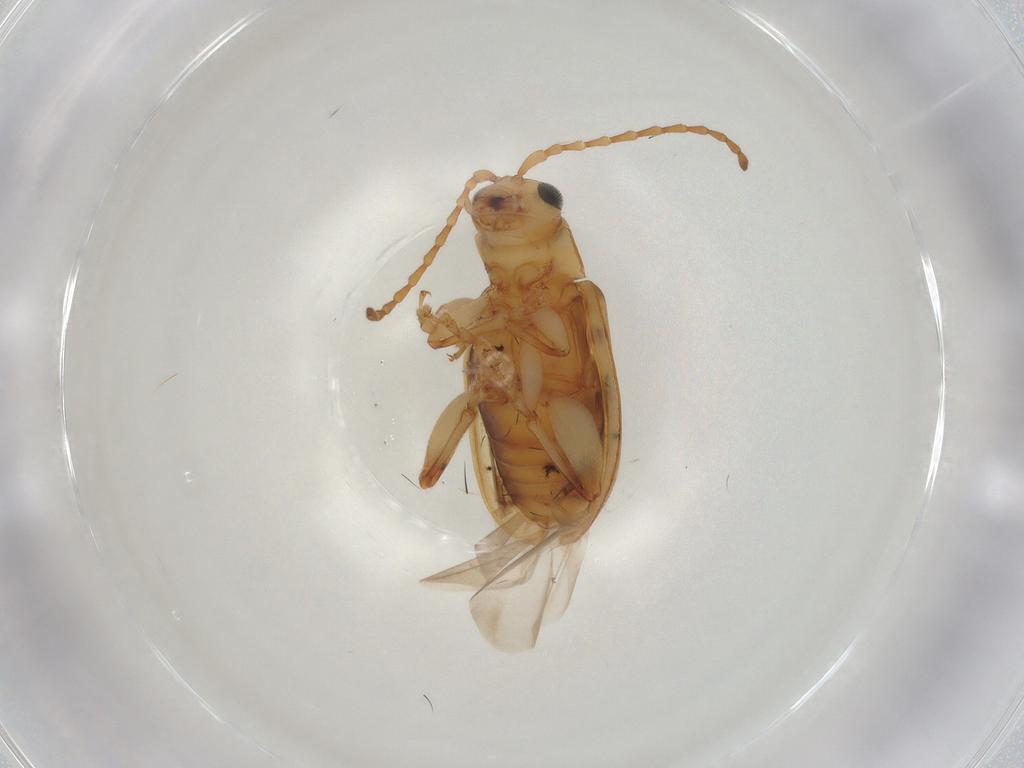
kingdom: Animalia
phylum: Arthropoda
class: Insecta
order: Coleoptera
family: Chrysomelidae
